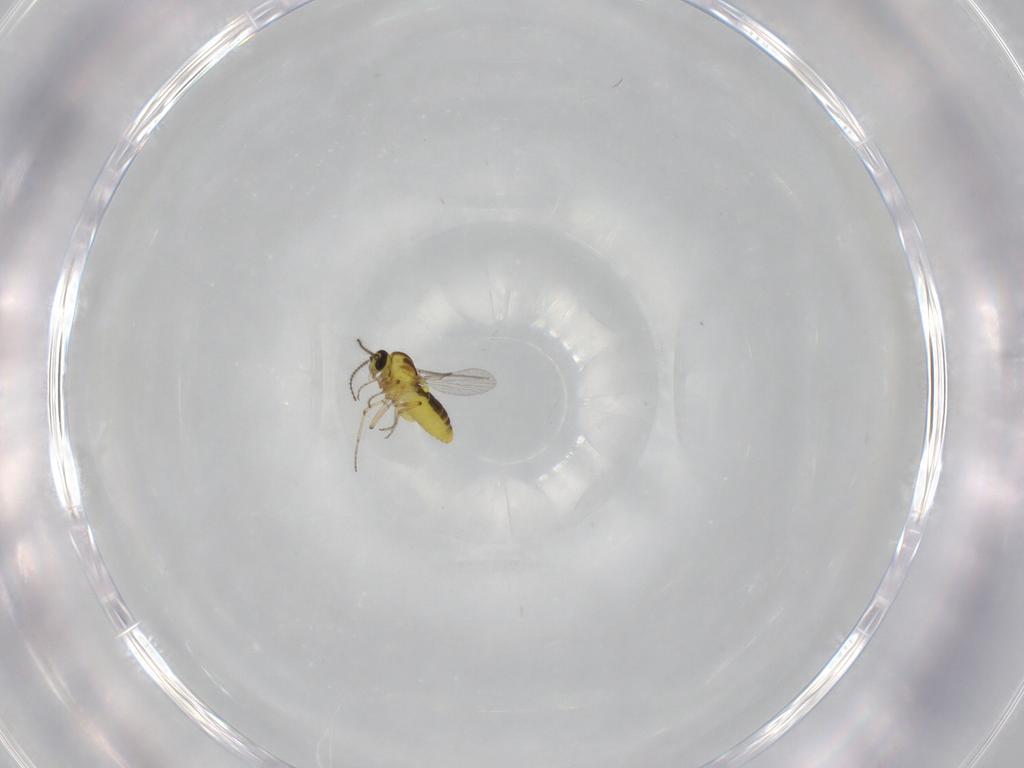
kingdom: Animalia
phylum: Arthropoda
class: Insecta
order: Diptera
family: Ceratopogonidae
